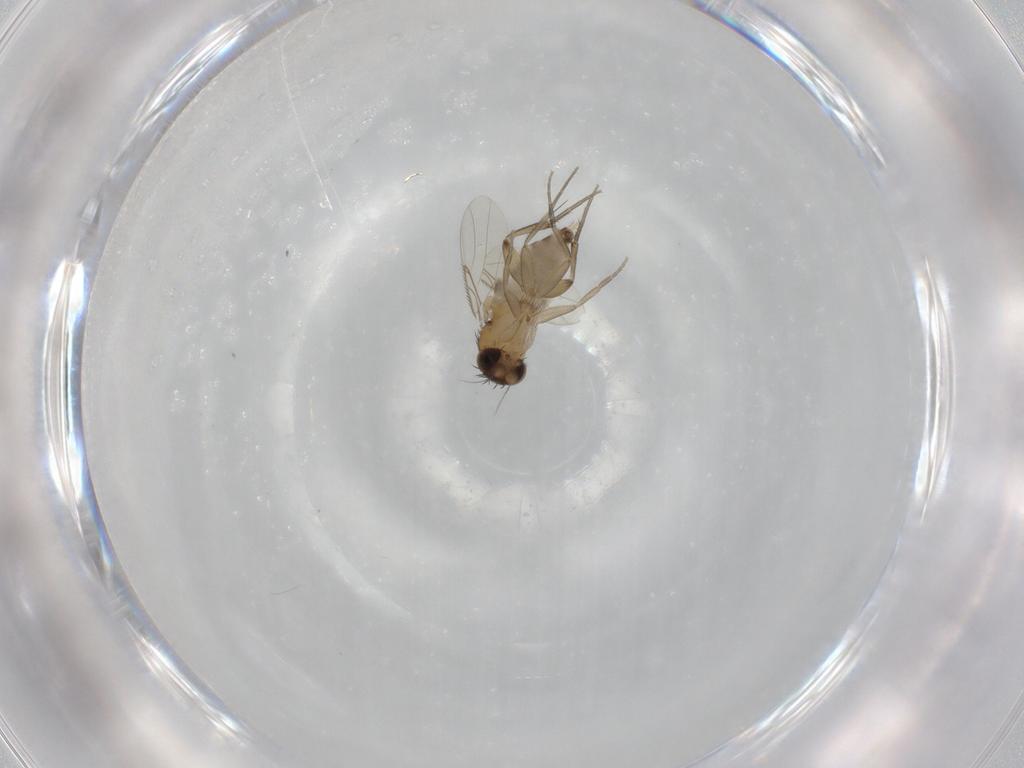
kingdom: Animalia
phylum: Arthropoda
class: Insecta
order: Diptera
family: Phoridae
